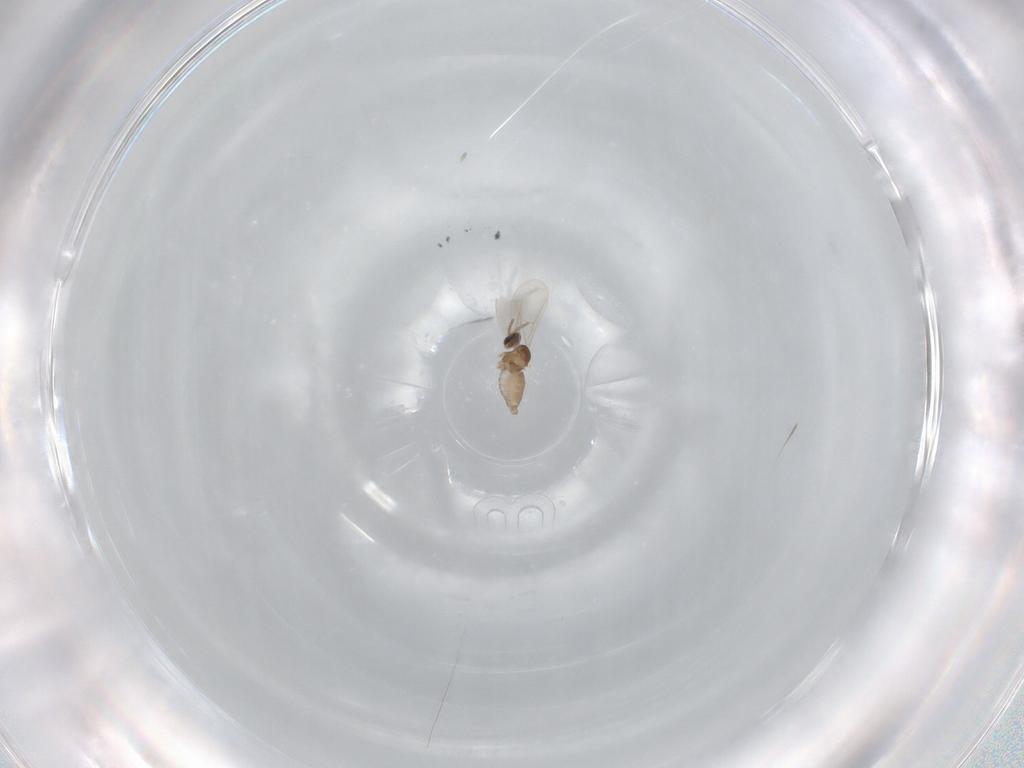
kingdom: Animalia
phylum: Arthropoda
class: Insecta
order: Diptera
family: Cecidomyiidae
